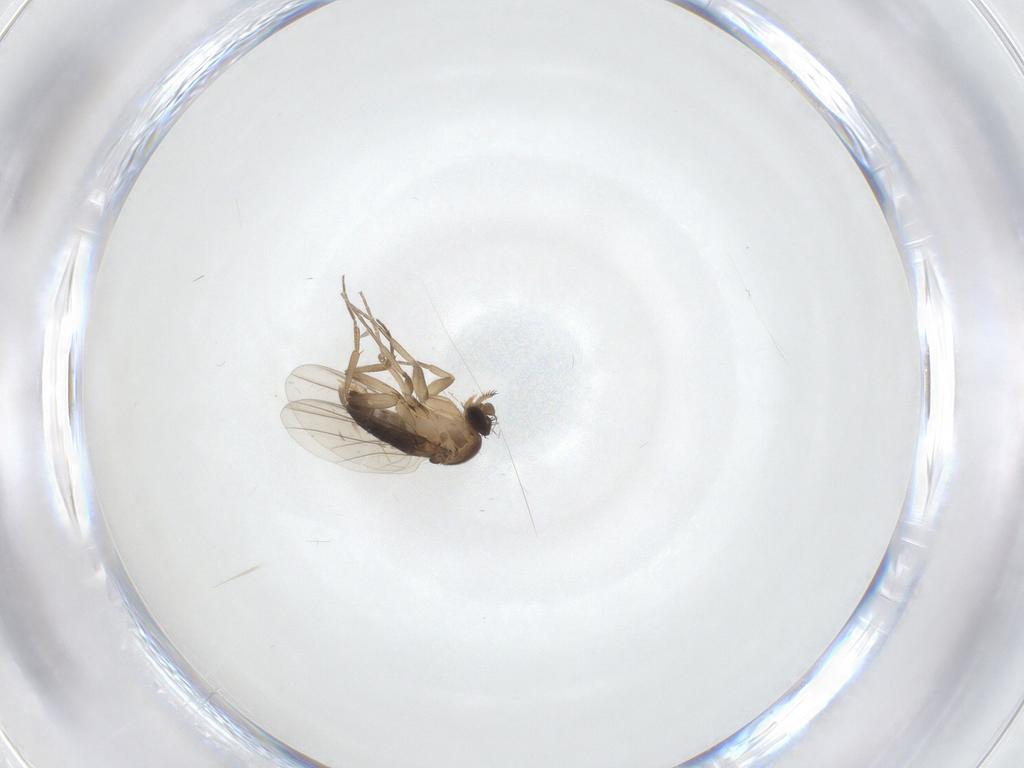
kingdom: Animalia
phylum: Arthropoda
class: Insecta
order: Diptera
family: Phoridae
